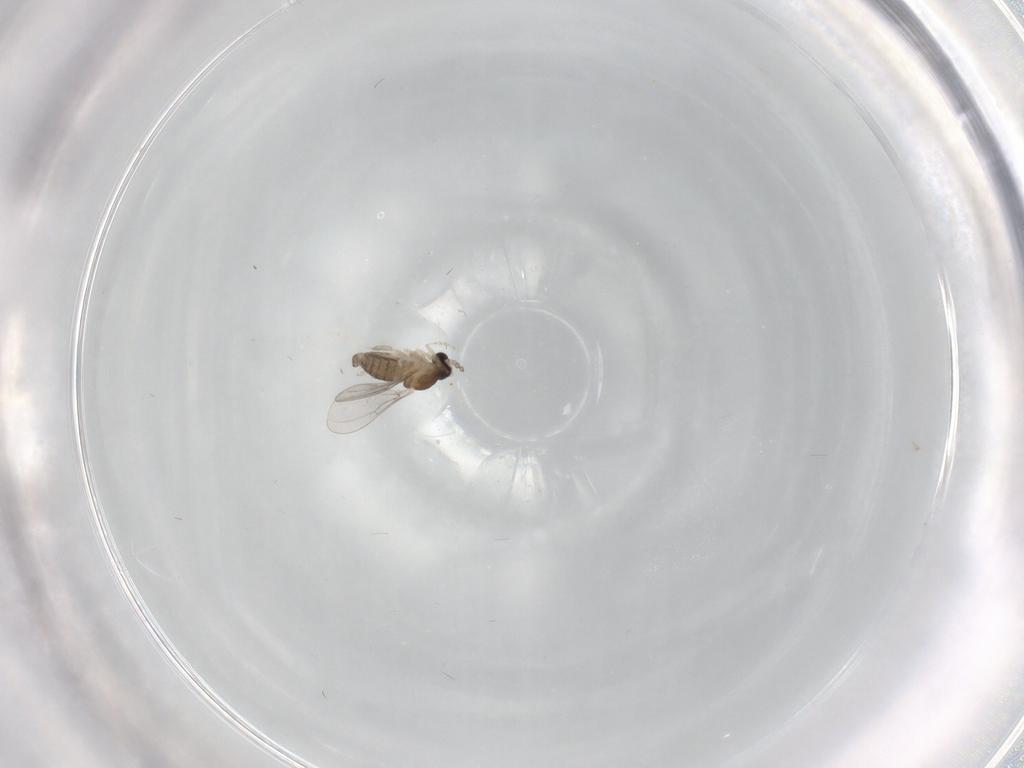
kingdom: Animalia
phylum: Arthropoda
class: Insecta
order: Diptera
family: Cecidomyiidae
